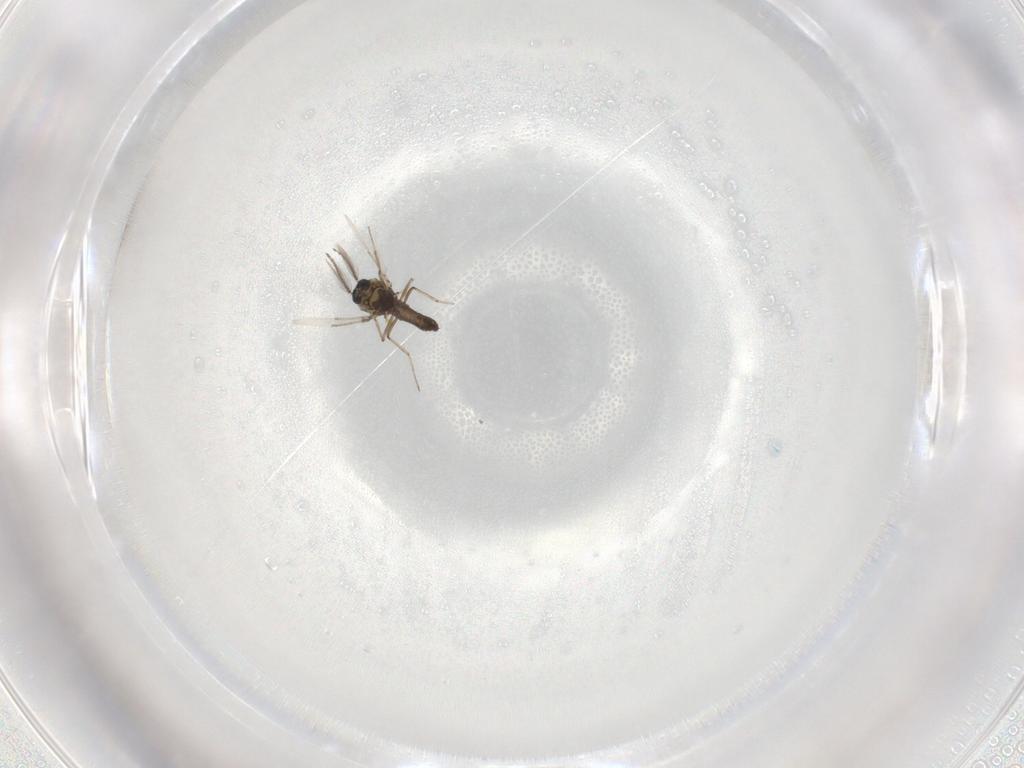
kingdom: Animalia
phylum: Arthropoda
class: Insecta
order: Diptera
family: Ceratopogonidae
